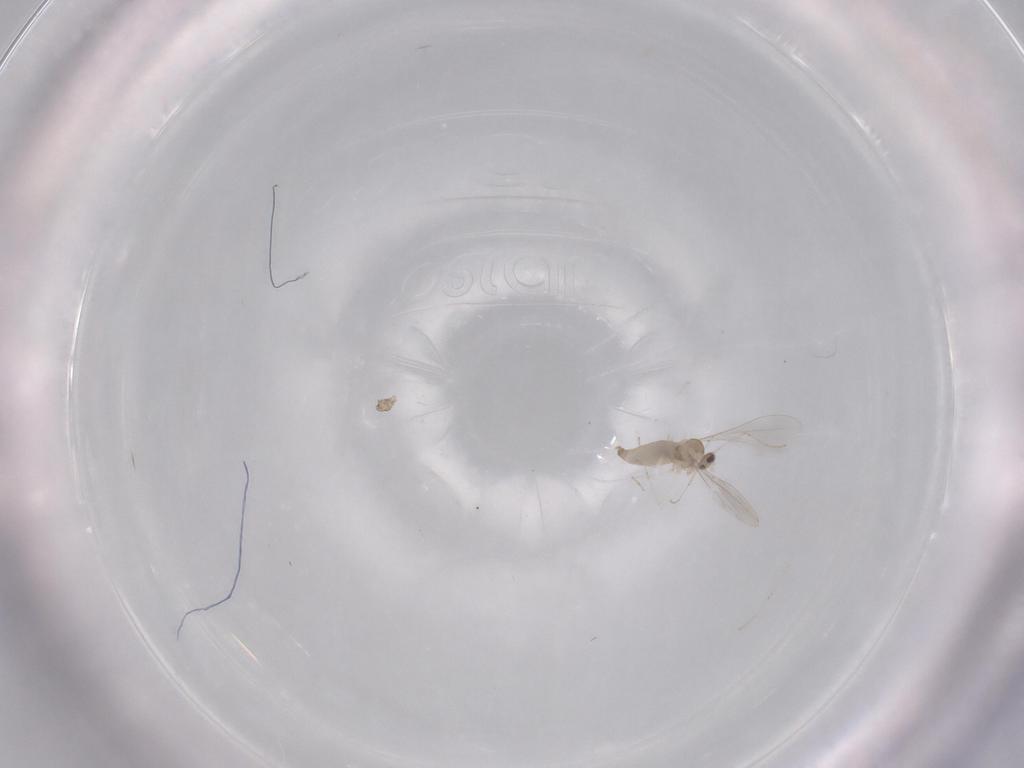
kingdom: Animalia
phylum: Arthropoda
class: Insecta
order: Diptera
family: Cecidomyiidae
